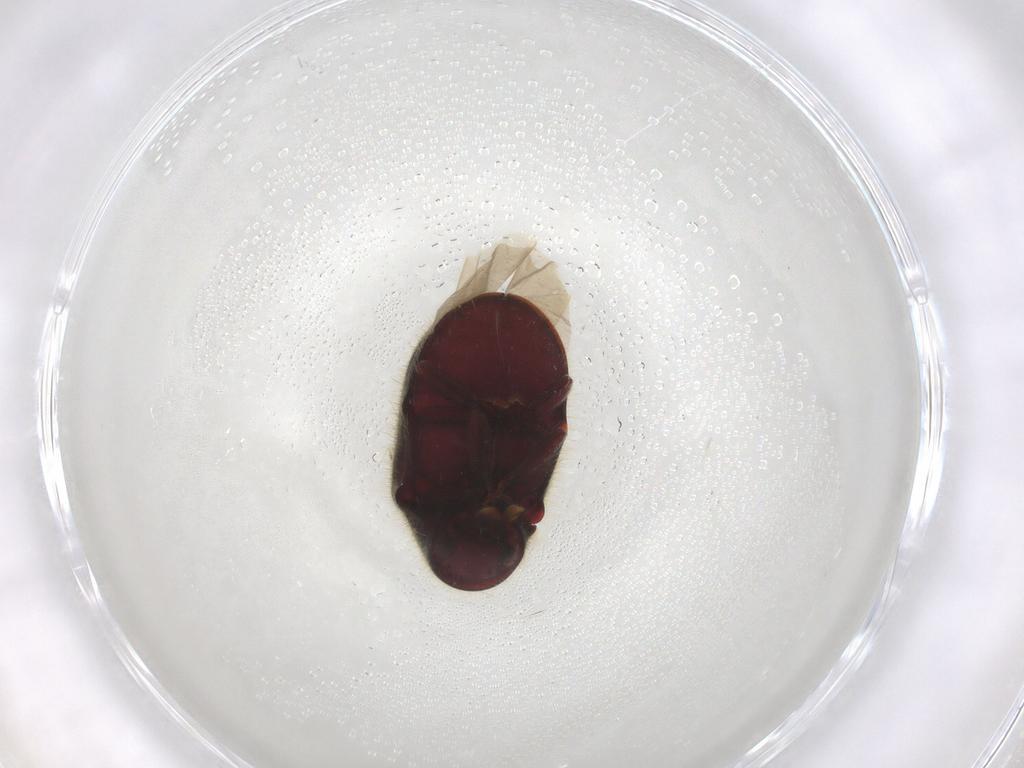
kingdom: Animalia
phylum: Arthropoda
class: Insecta
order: Coleoptera
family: Ptinidae
